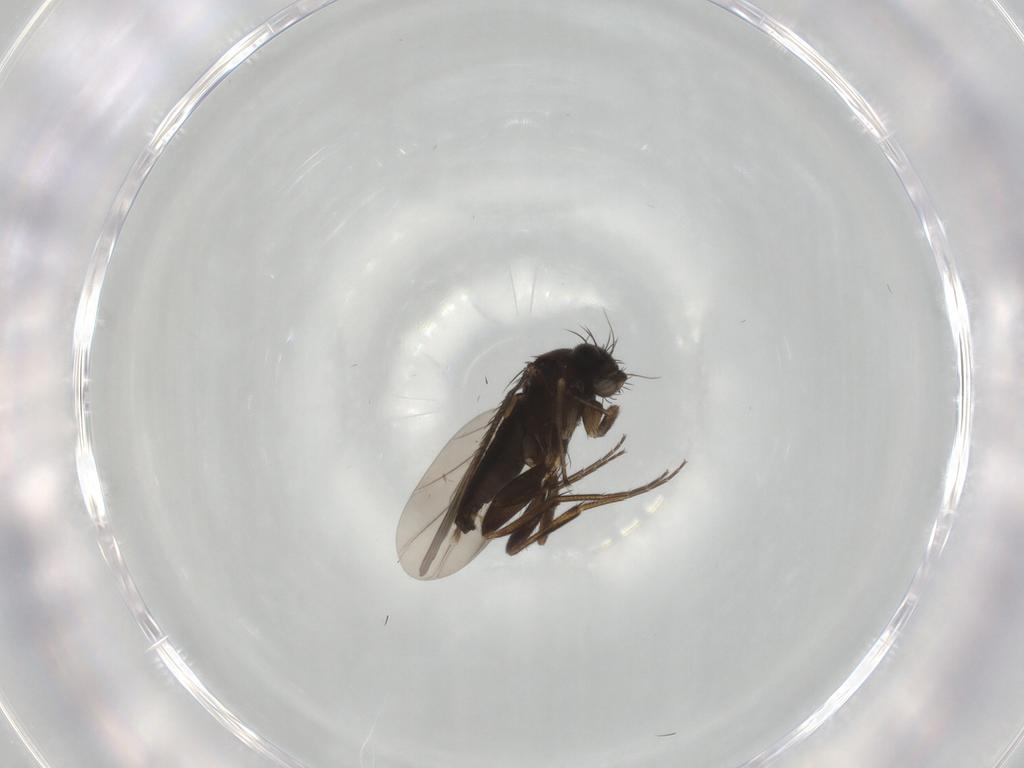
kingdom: Animalia
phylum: Arthropoda
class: Insecta
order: Diptera
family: Phoridae
